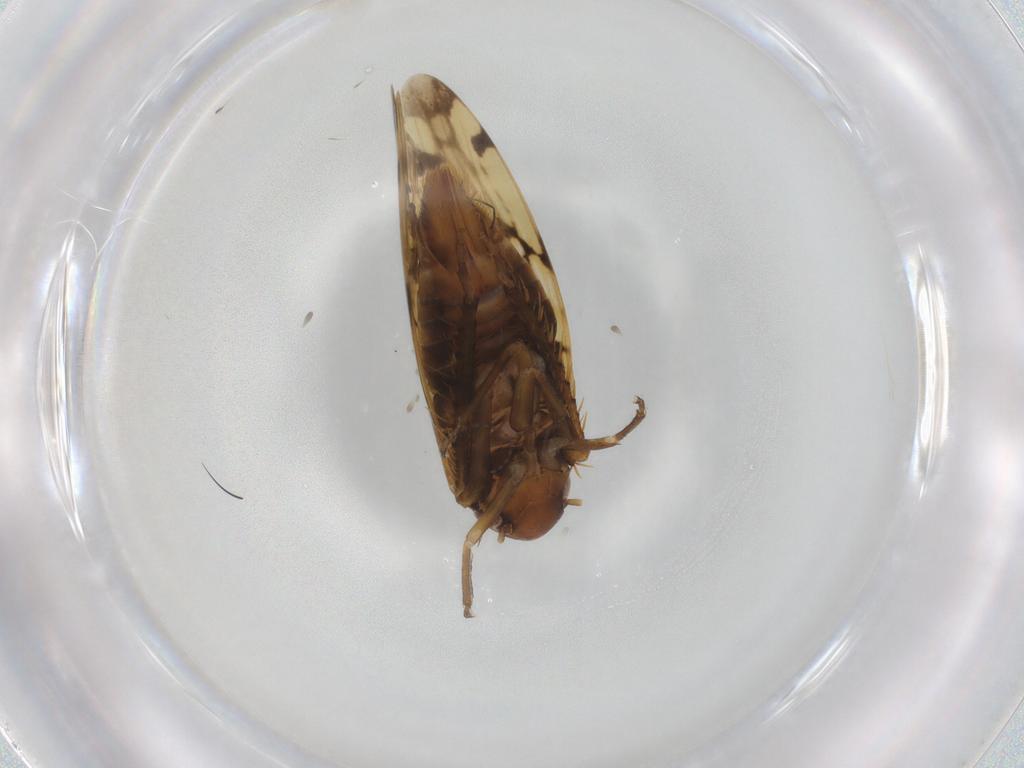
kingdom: Animalia
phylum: Arthropoda
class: Insecta
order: Hemiptera
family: Cicadellidae
